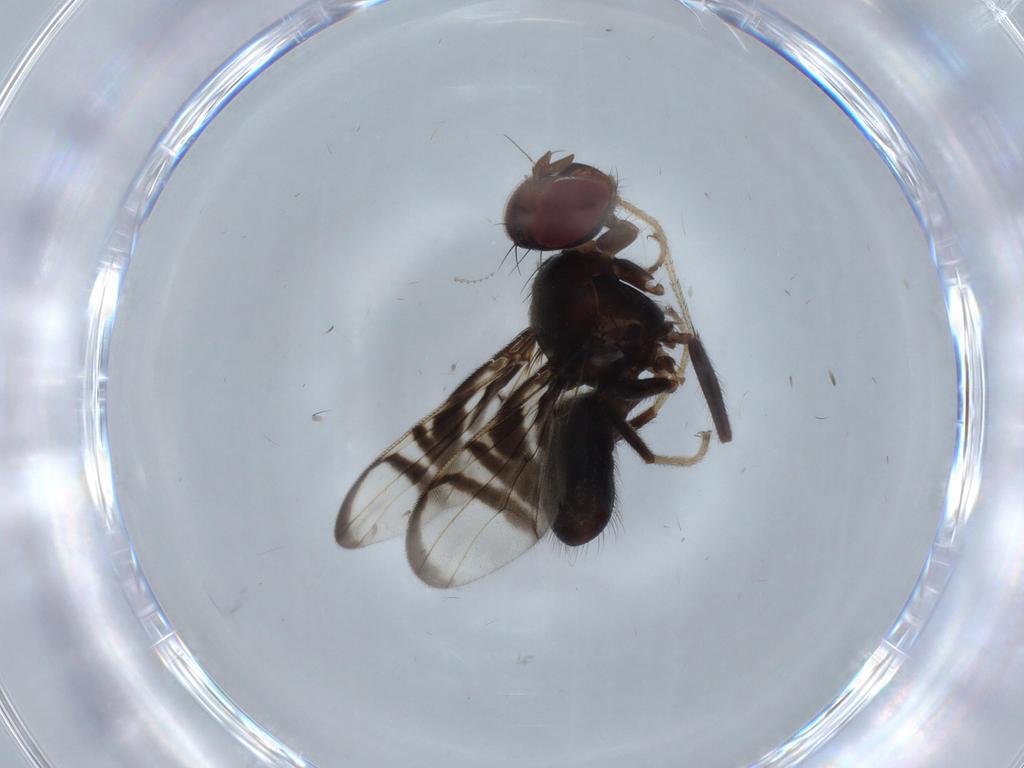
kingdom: Animalia
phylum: Arthropoda
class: Insecta
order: Diptera
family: Platystomatidae
